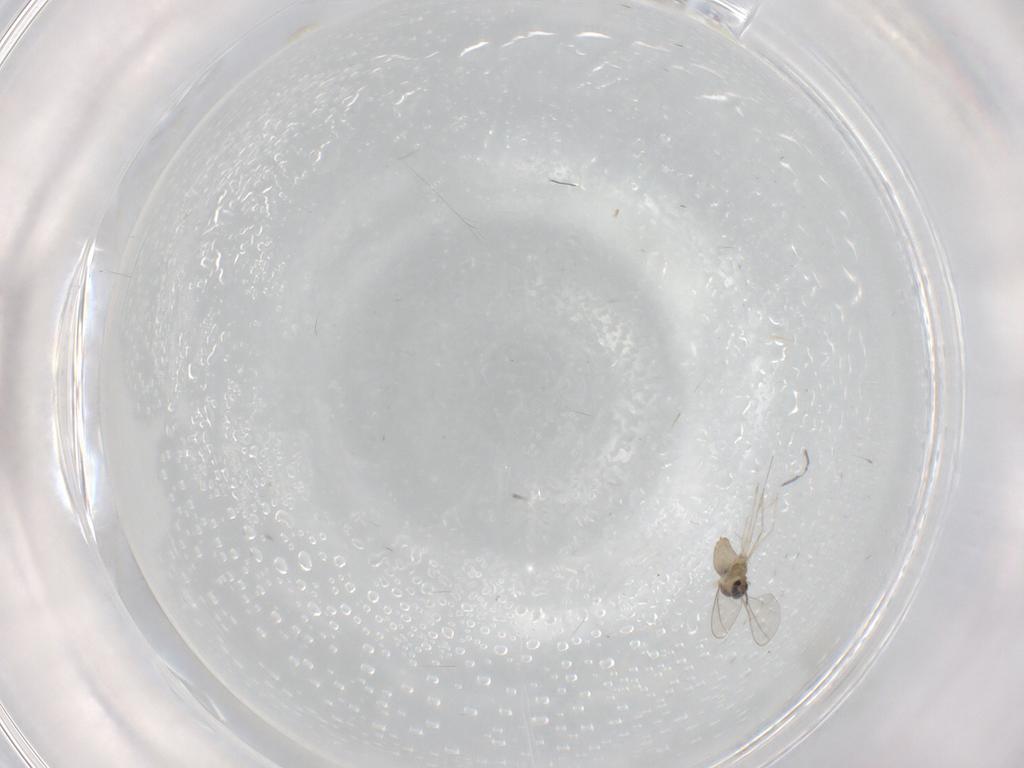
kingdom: Animalia
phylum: Arthropoda
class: Insecta
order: Diptera
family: Cecidomyiidae
